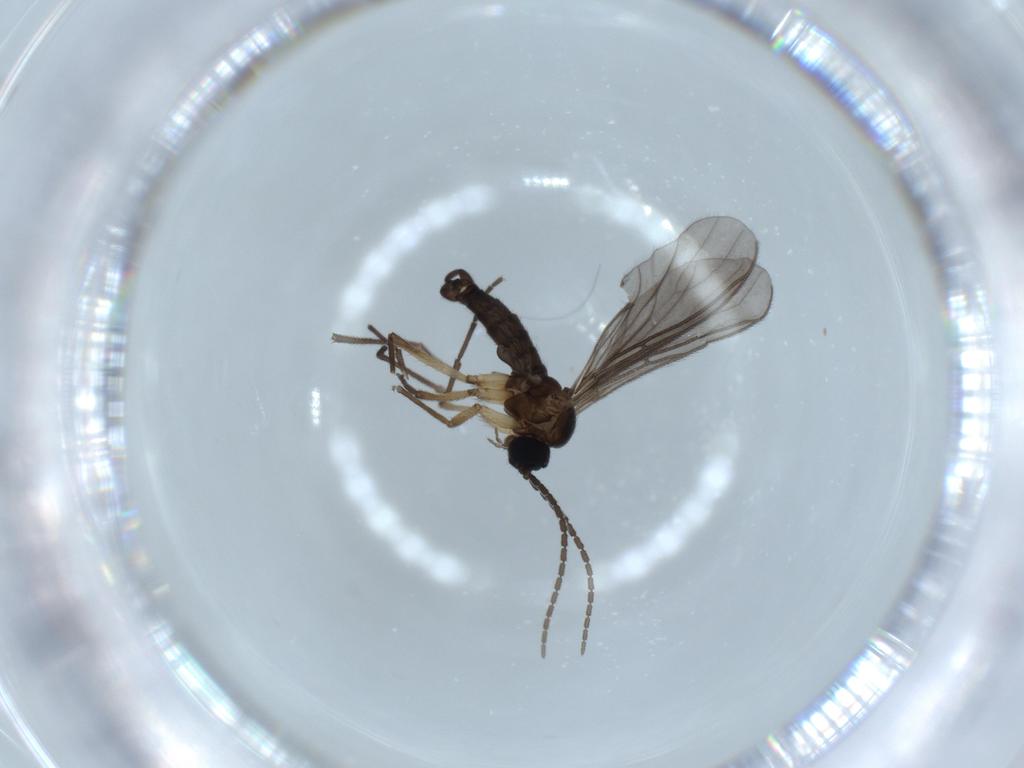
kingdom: Animalia
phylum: Arthropoda
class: Insecta
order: Diptera
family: Sciaridae
